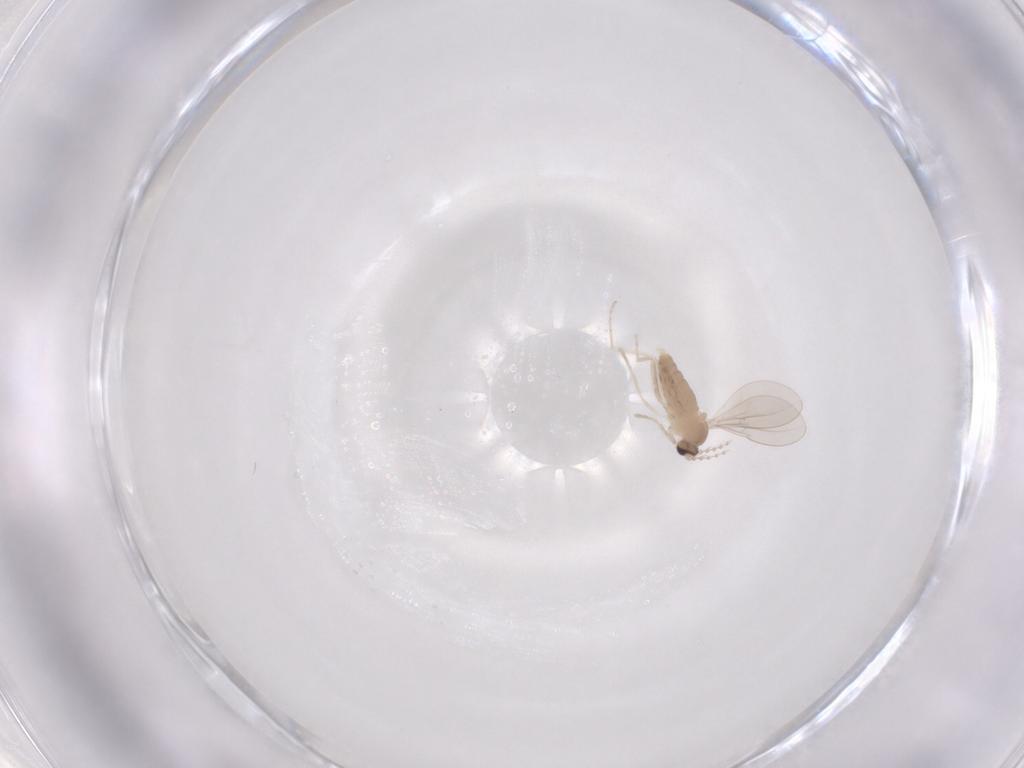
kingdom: Animalia
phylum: Arthropoda
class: Insecta
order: Diptera
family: Cecidomyiidae
